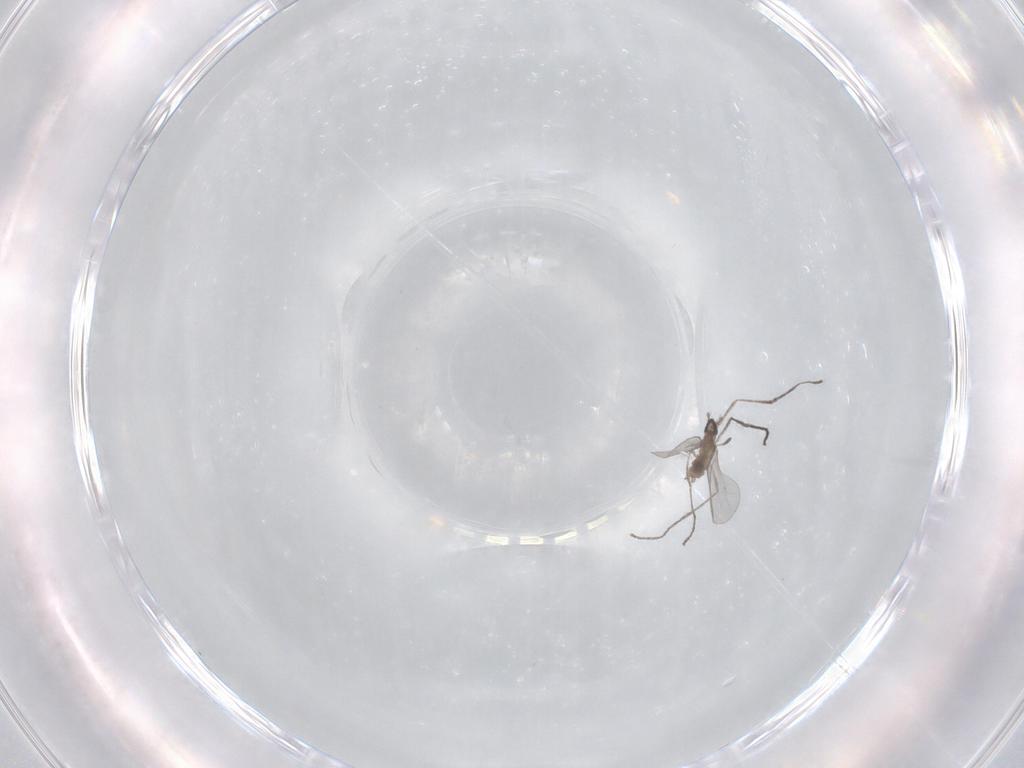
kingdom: Animalia
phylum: Arthropoda
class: Insecta
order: Diptera
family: Cecidomyiidae
